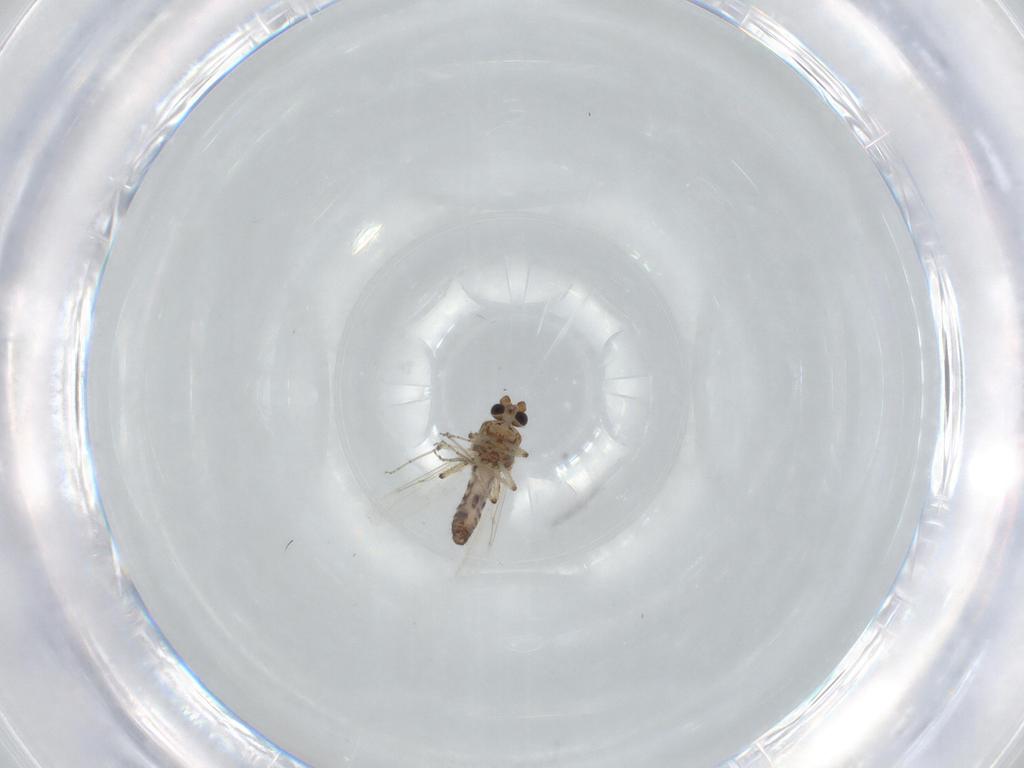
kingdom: Animalia
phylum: Arthropoda
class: Insecta
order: Diptera
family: Ceratopogonidae
